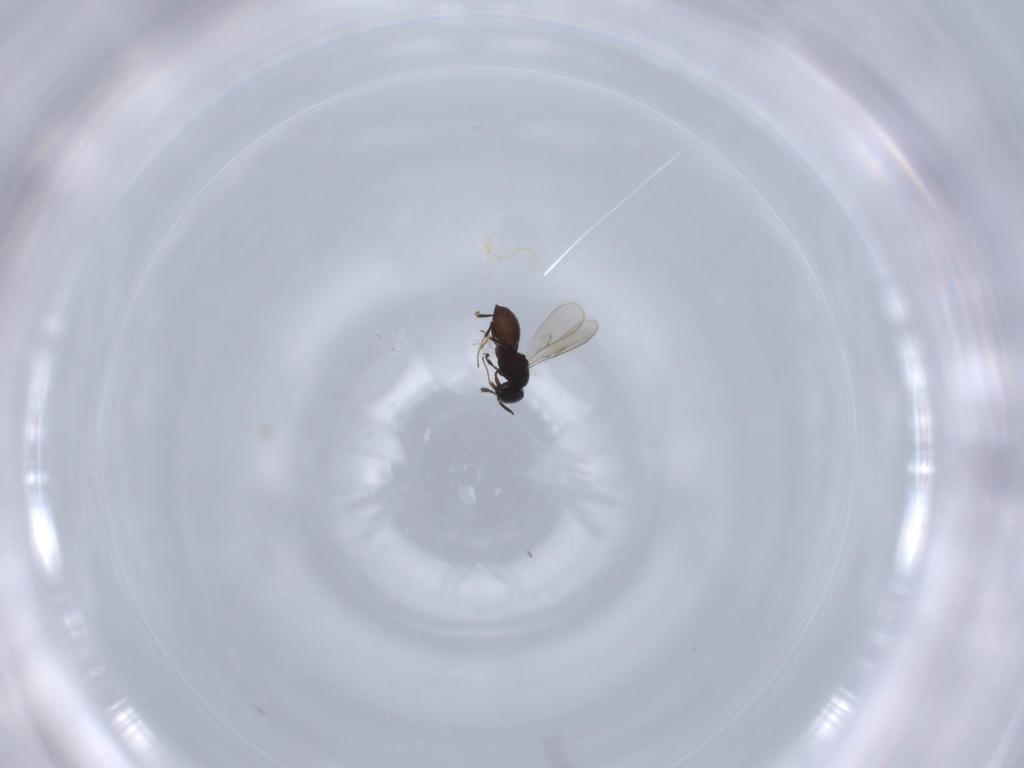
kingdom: Animalia
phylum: Arthropoda
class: Insecta
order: Hymenoptera
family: Scelionidae
